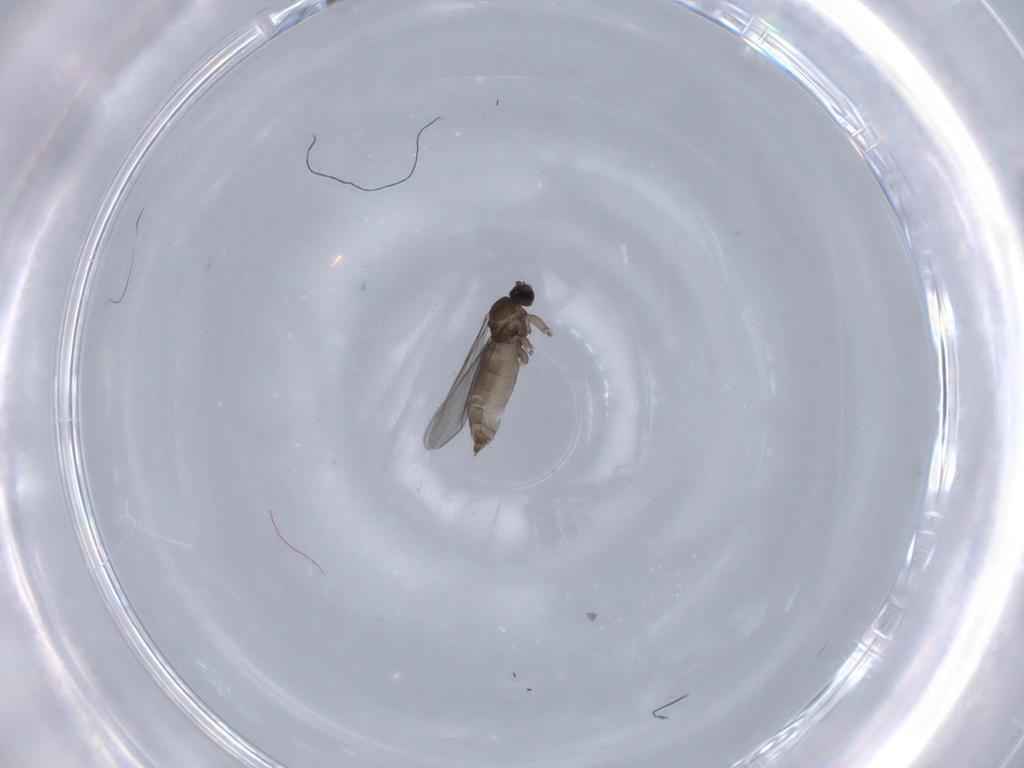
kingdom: Animalia
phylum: Arthropoda
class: Insecta
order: Diptera
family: Sciaridae
